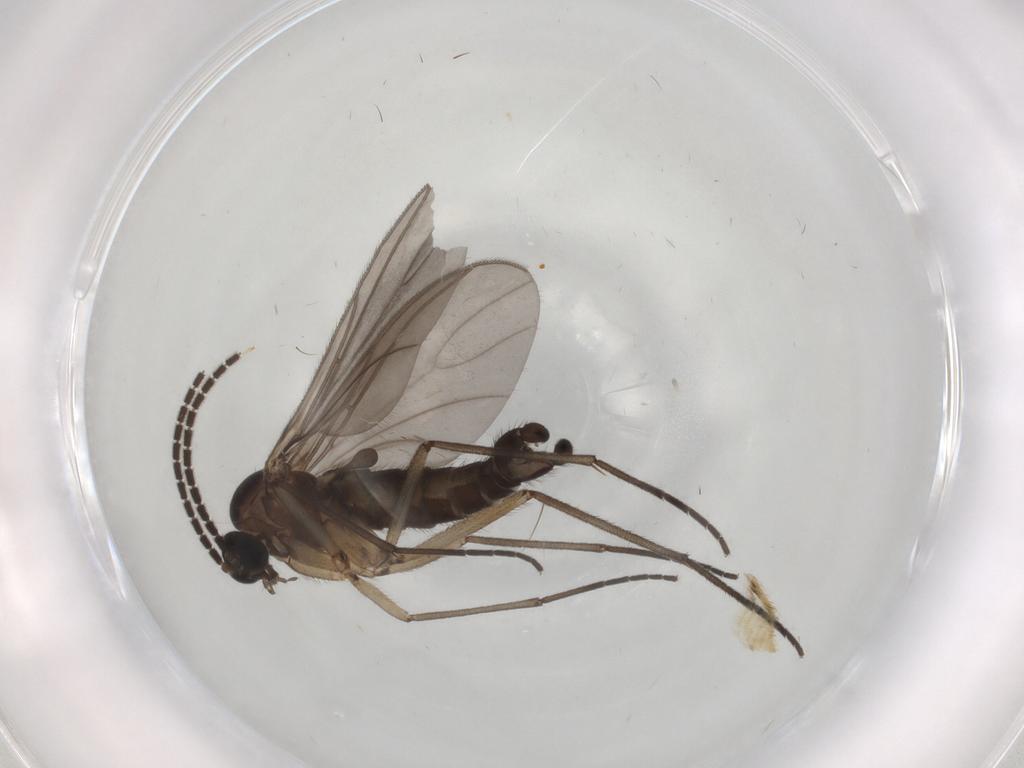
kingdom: Animalia
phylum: Arthropoda
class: Insecta
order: Diptera
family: Sciaridae
